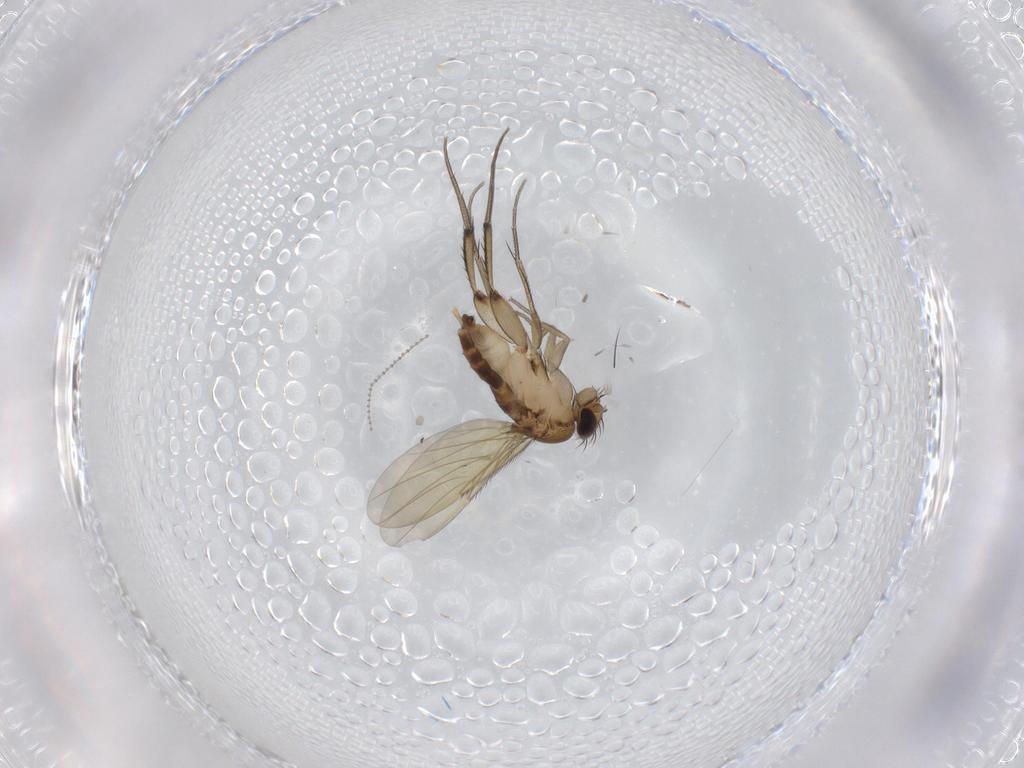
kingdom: Animalia
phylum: Arthropoda
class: Insecta
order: Diptera
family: Phoridae
